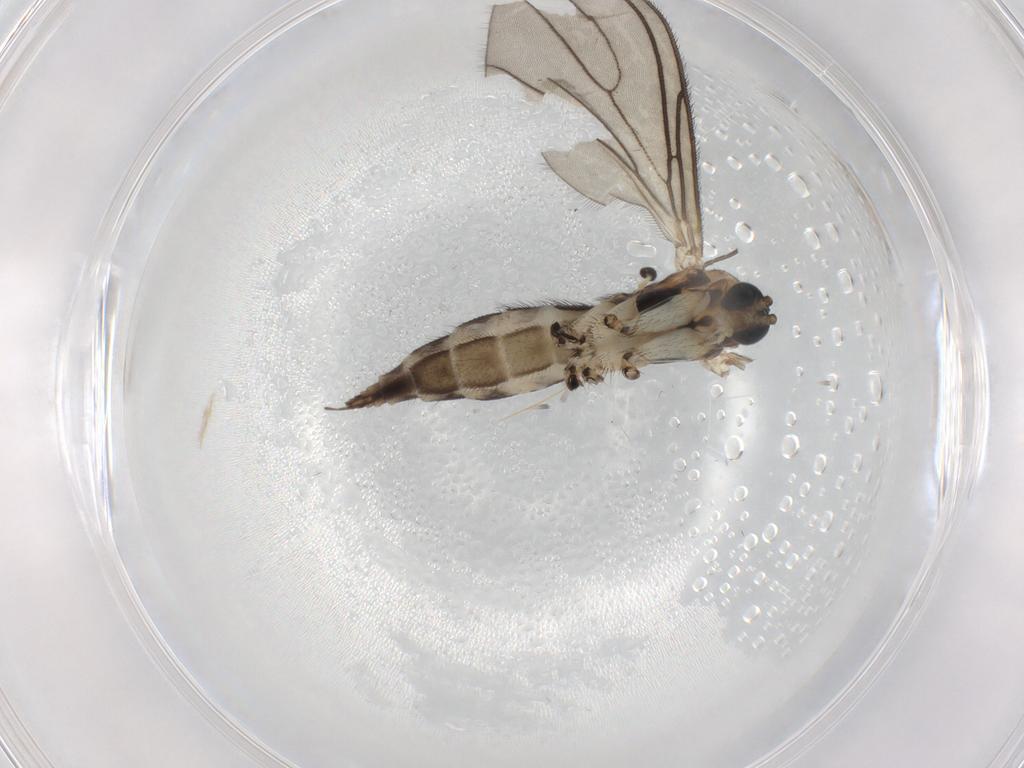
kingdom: Animalia
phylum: Arthropoda
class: Insecta
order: Diptera
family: Sciaridae
